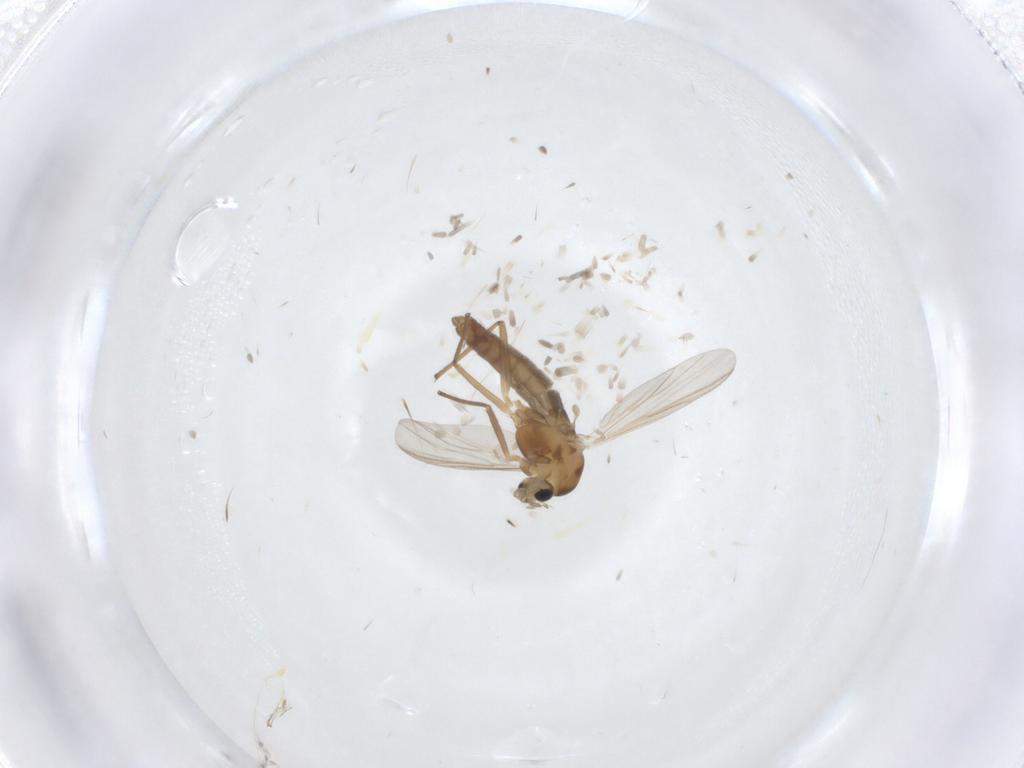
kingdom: Animalia
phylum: Arthropoda
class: Insecta
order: Diptera
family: Chironomidae
